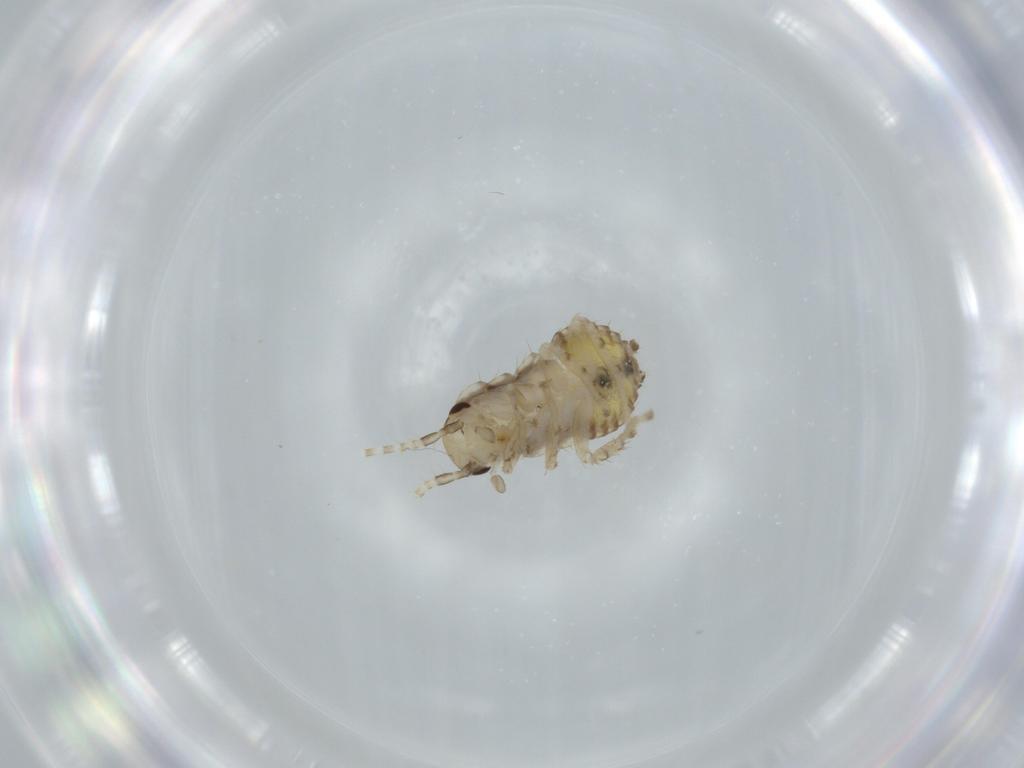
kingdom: Animalia
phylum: Arthropoda
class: Insecta
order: Blattodea
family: Ectobiidae
